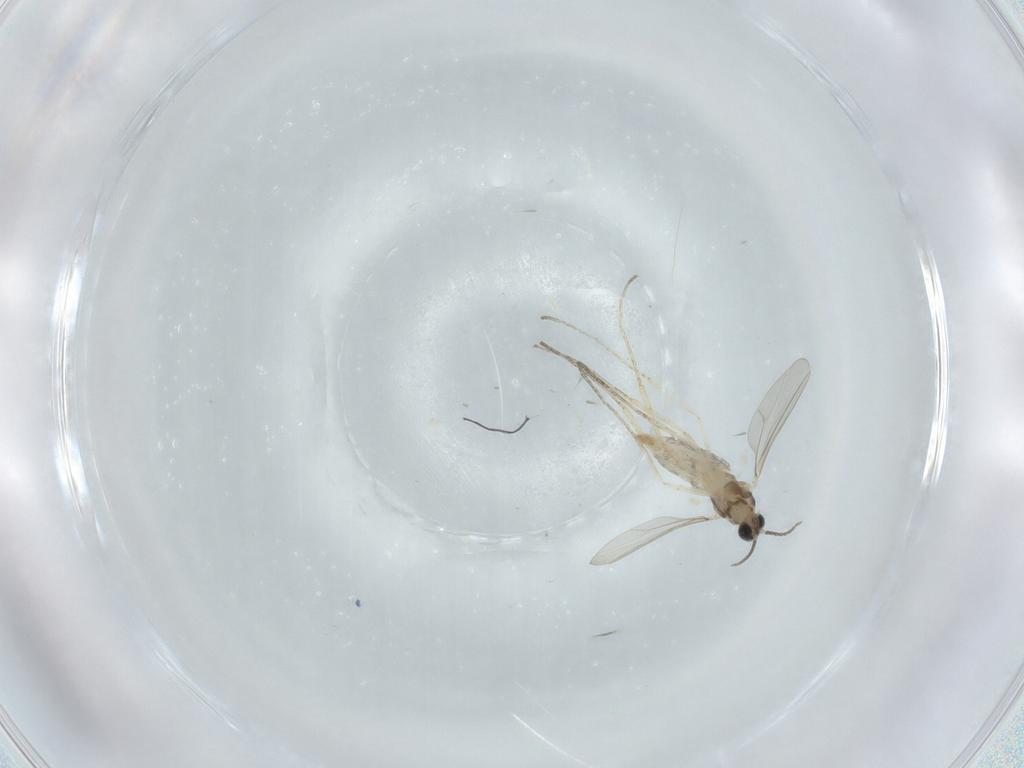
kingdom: Animalia
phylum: Arthropoda
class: Insecta
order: Diptera
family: Cecidomyiidae
